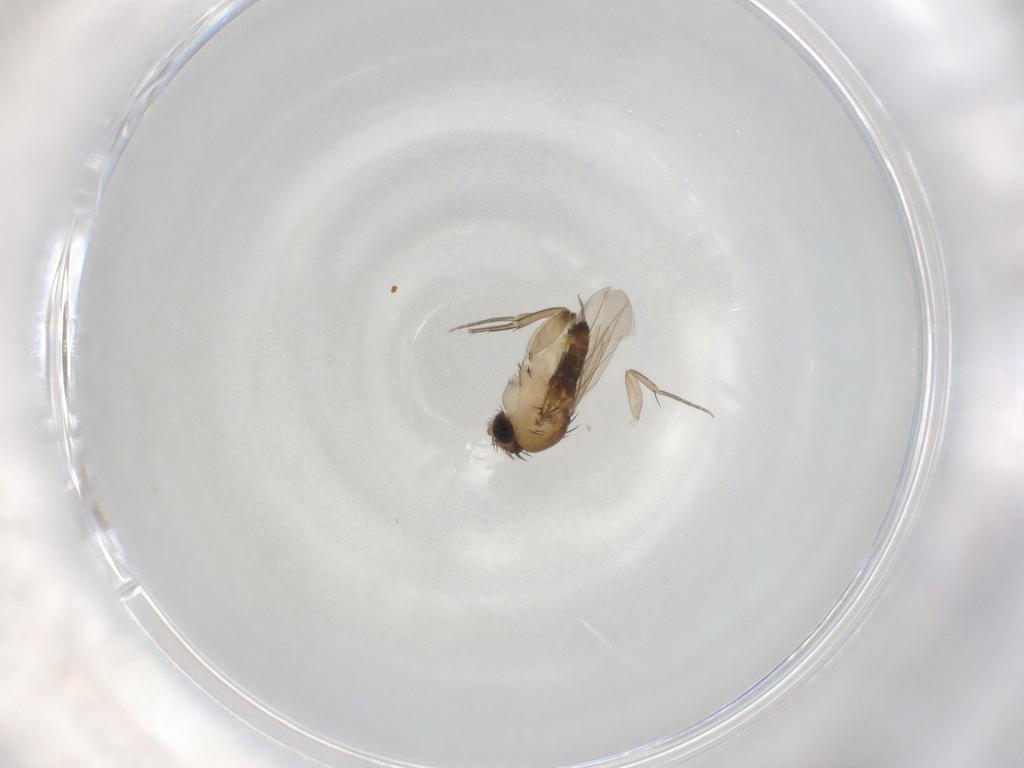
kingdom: Animalia
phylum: Arthropoda
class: Insecta
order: Diptera
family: Phoridae
